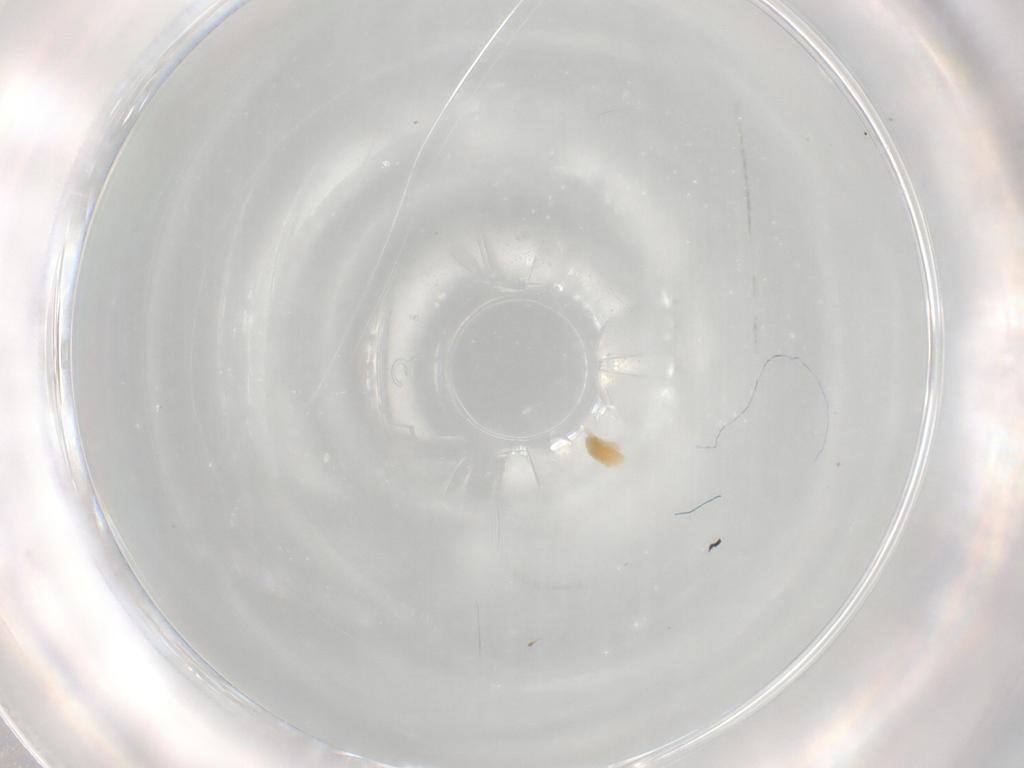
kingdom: Animalia
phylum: Arthropoda
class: Arachnida
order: Trombidiformes
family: Eupodidae
